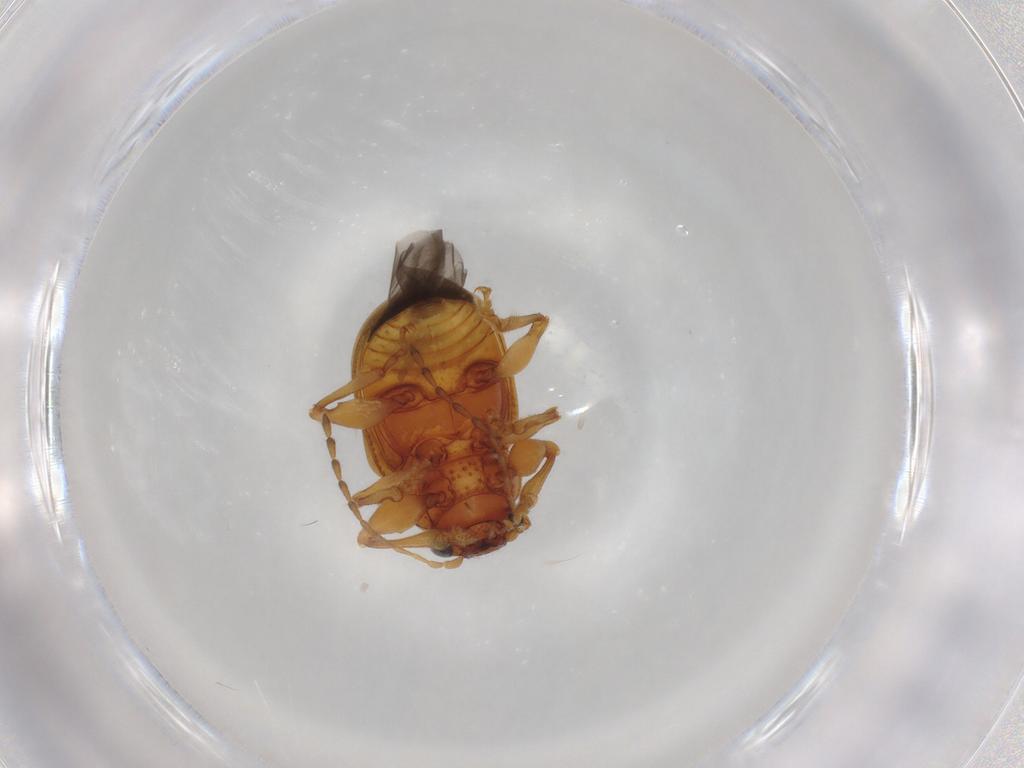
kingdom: Animalia
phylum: Arthropoda
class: Insecta
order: Coleoptera
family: Chrysomelidae
